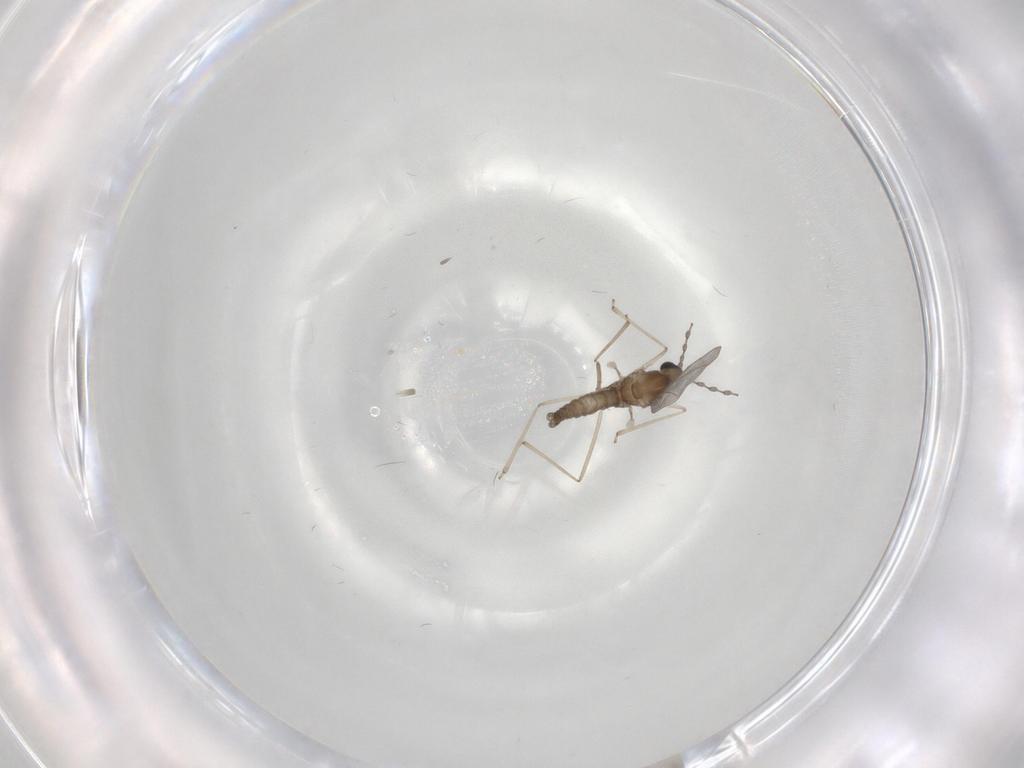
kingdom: Animalia
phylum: Arthropoda
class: Insecta
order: Diptera
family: Cecidomyiidae
